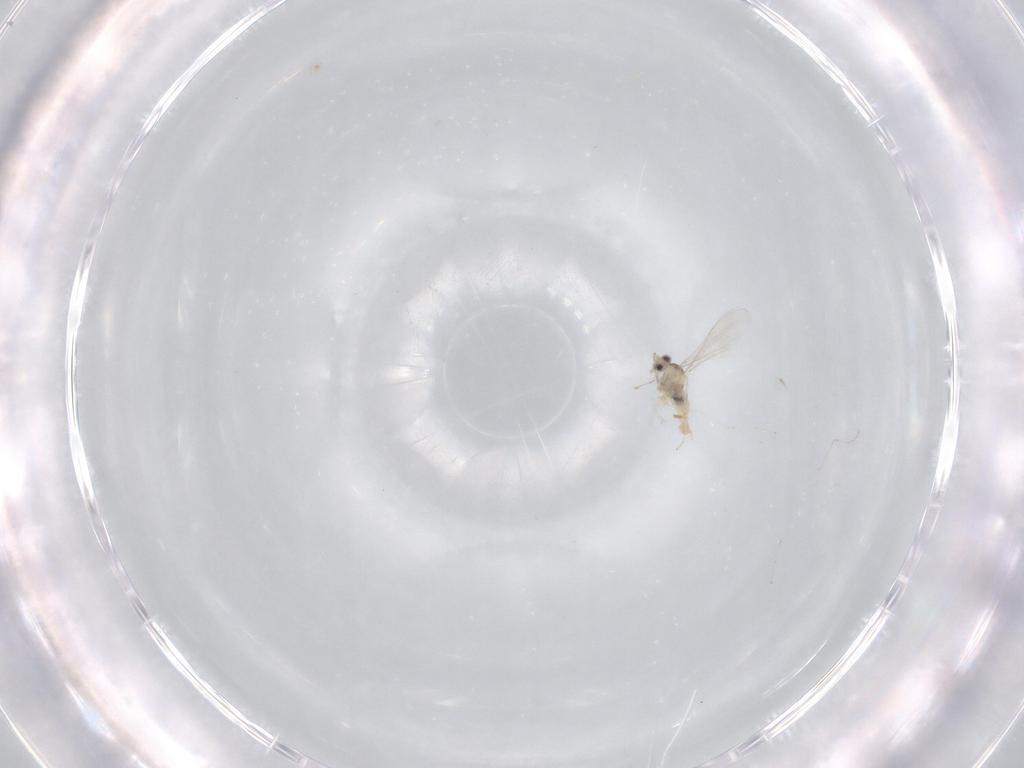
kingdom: Animalia
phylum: Arthropoda
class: Insecta
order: Diptera
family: Cecidomyiidae
